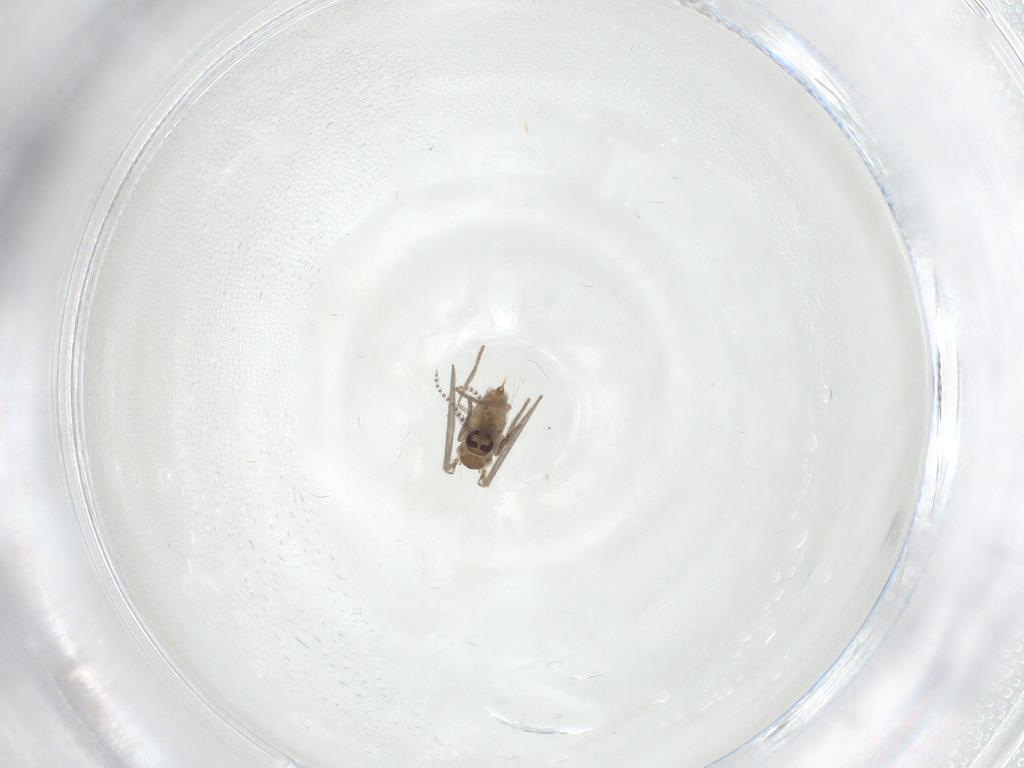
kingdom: Animalia
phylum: Arthropoda
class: Insecta
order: Diptera
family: Psychodidae
